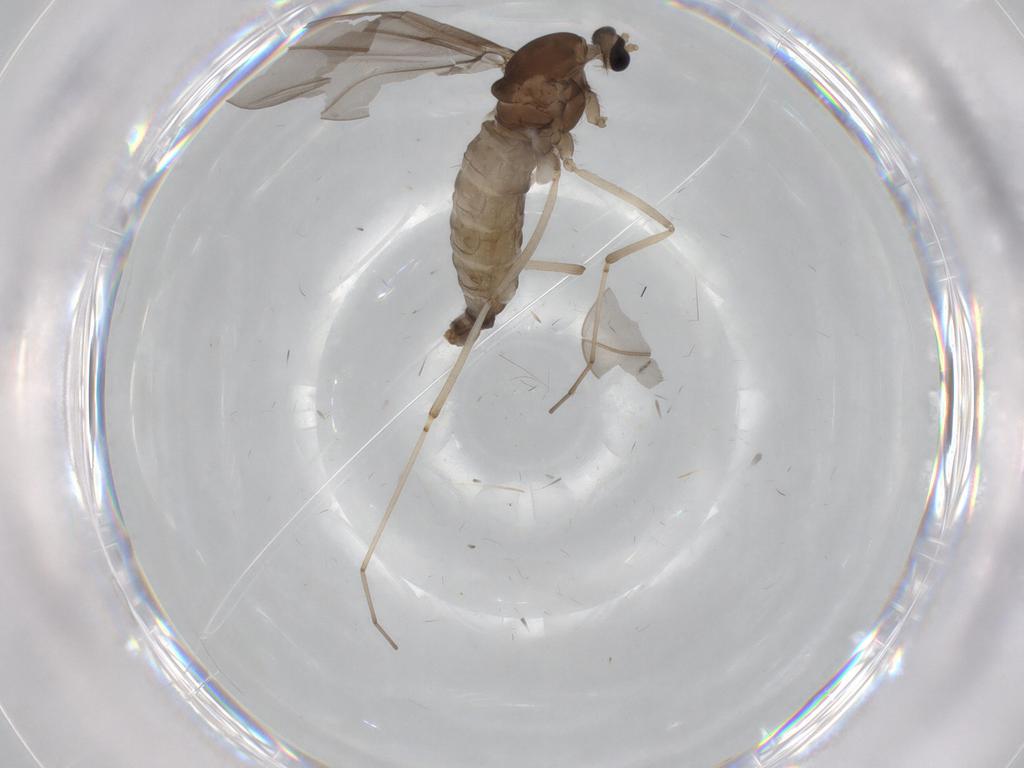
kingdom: Animalia
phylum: Arthropoda
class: Insecta
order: Diptera
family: Cecidomyiidae
